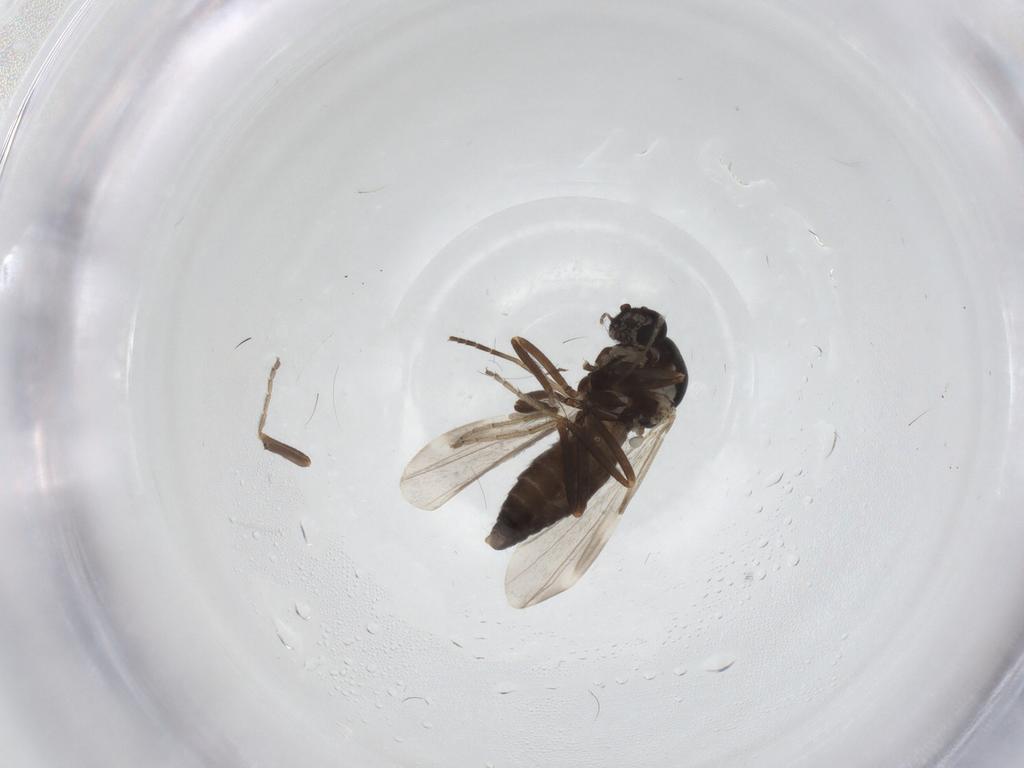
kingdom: Animalia
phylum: Arthropoda
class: Insecta
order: Diptera
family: Ceratopogonidae
